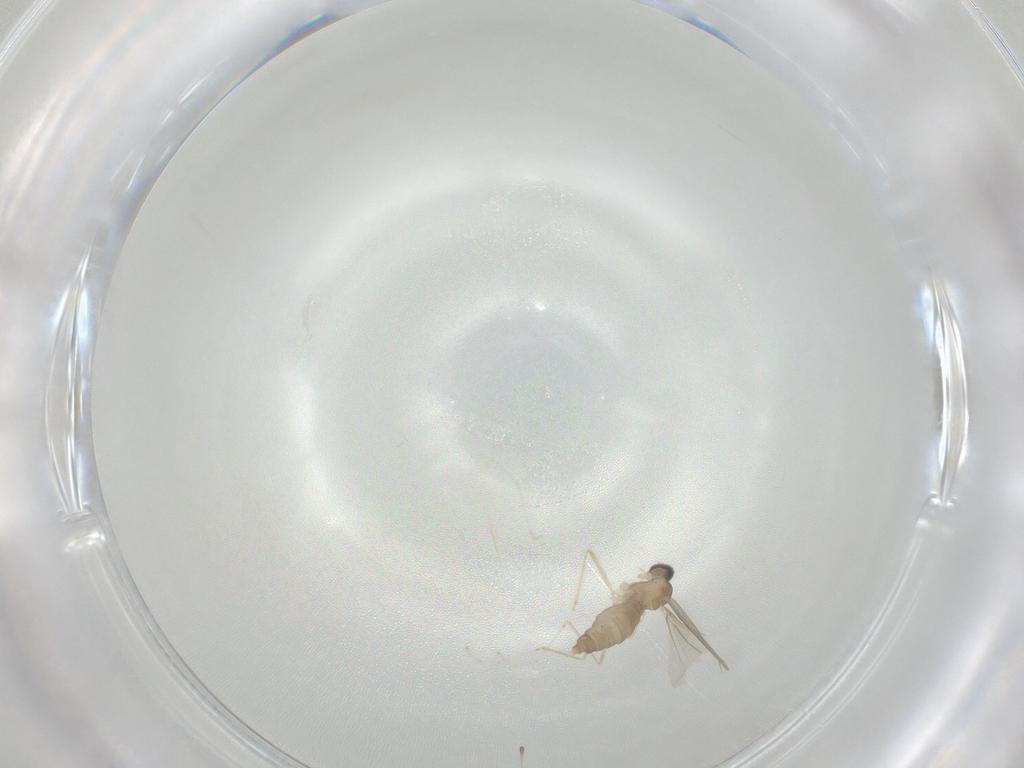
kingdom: Animalia
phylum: Arthropoda
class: Insecta
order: Diptera
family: Cecidomyiidae
